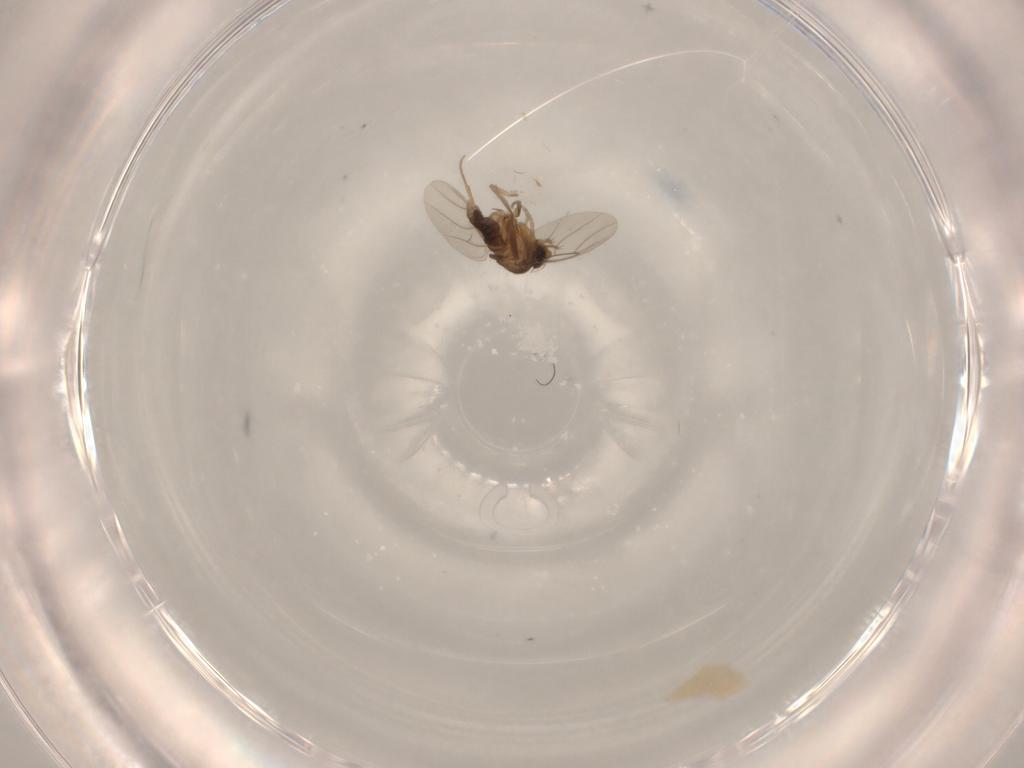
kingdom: Animalia
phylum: Arthropoda
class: Insecta
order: Diptera
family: Phoridae
